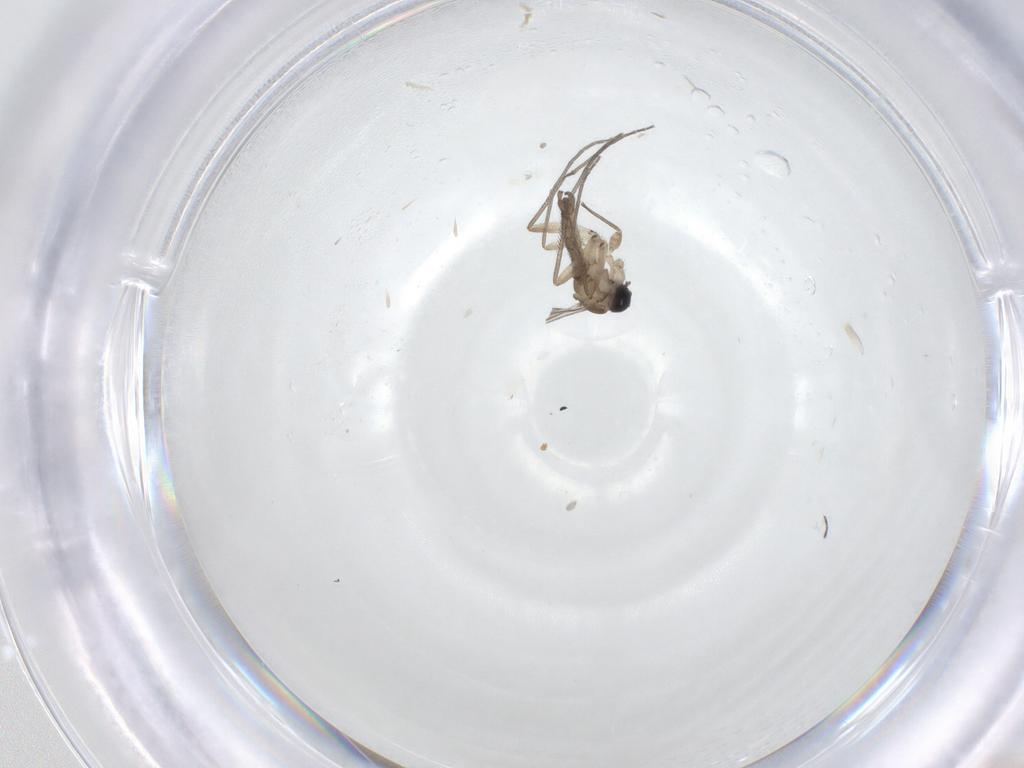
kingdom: Animalia
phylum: Arthropoda
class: Insecta
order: Diptera
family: Sciaridae
